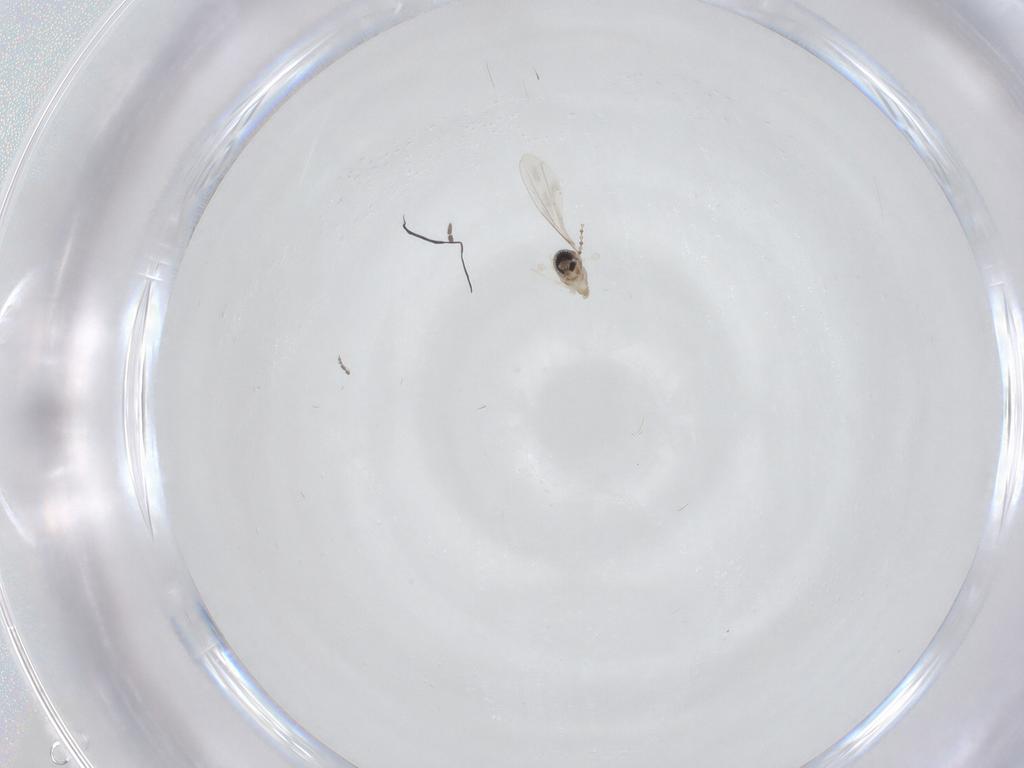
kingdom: Animalia
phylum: Arthropoda
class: Insecta
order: Diptera
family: Cecidomyiidae
